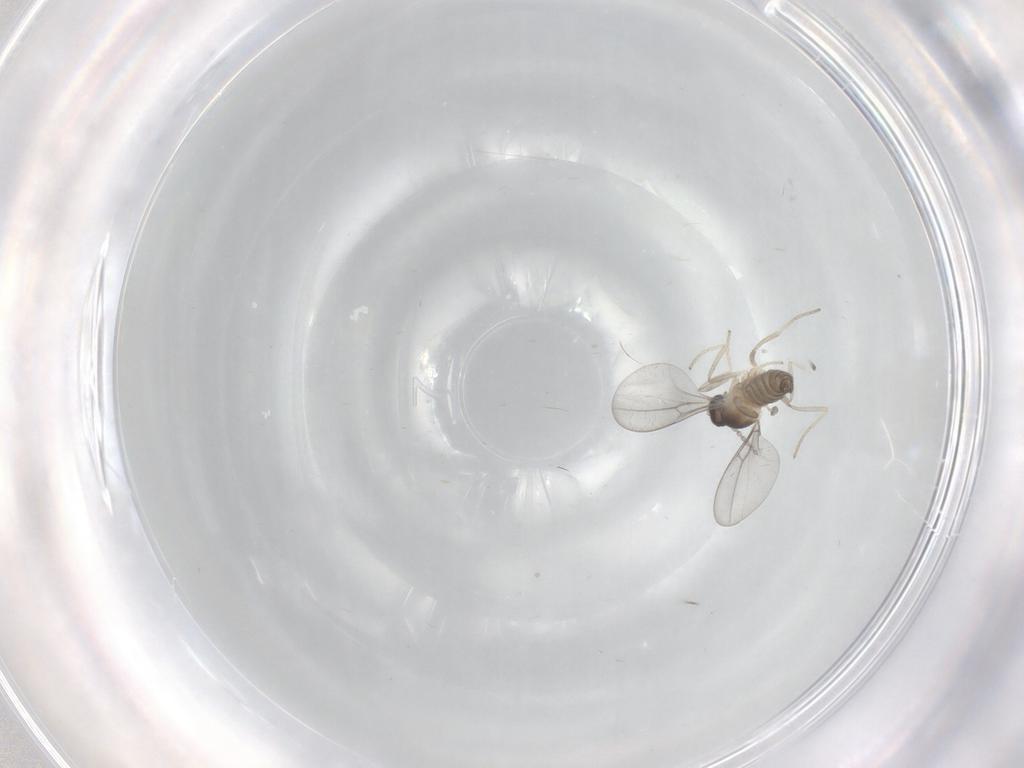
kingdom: Animalia
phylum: Arthropoda
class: Insecta
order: Diptera
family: Cecidomyiidae
